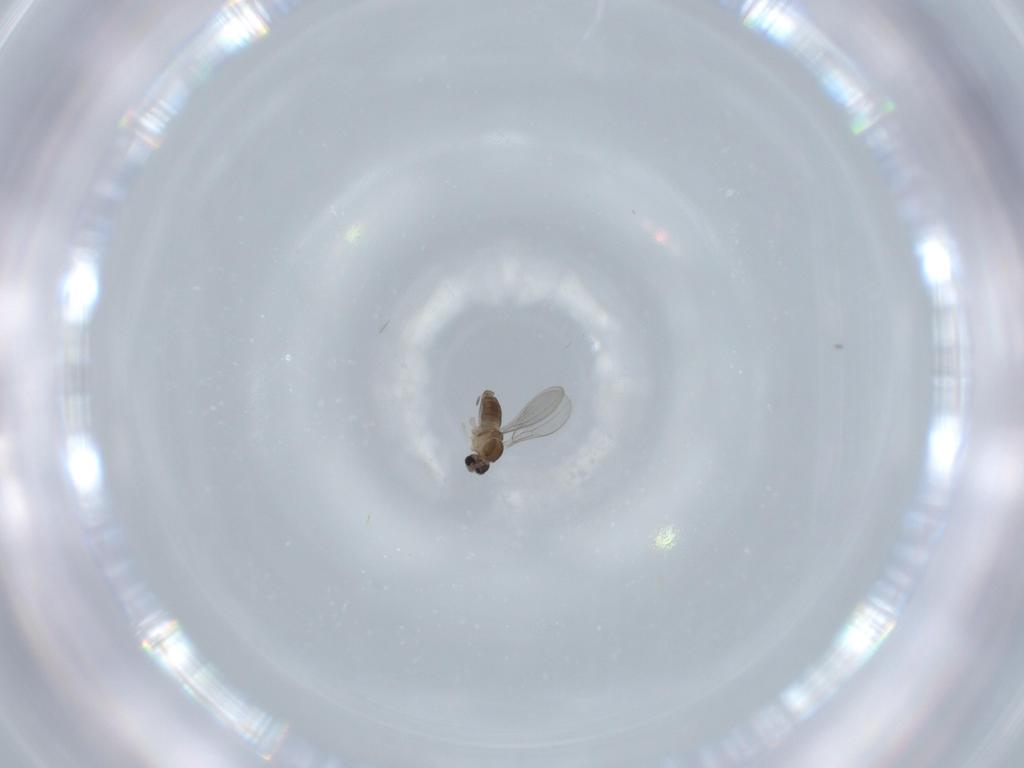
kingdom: Animalia
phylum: Arthropoda
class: Insecta
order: Diptera
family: Cecidomyiidae
